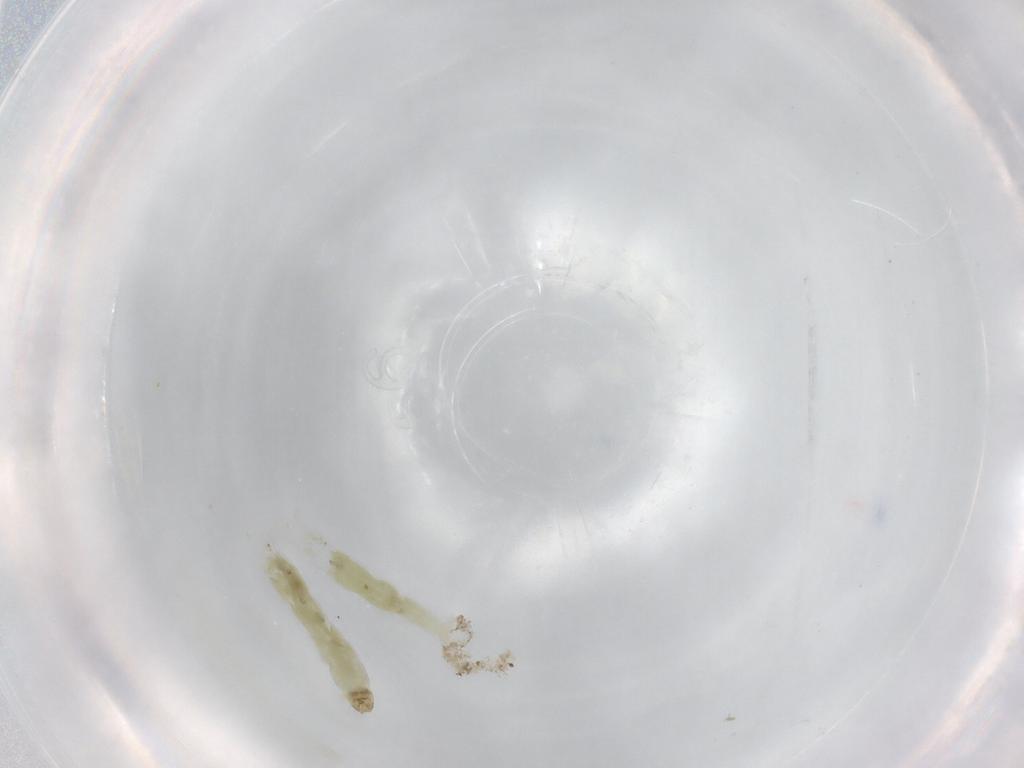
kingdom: Animalia
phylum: Arthropoda
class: Insecta
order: Diptera
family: Chironomidae
